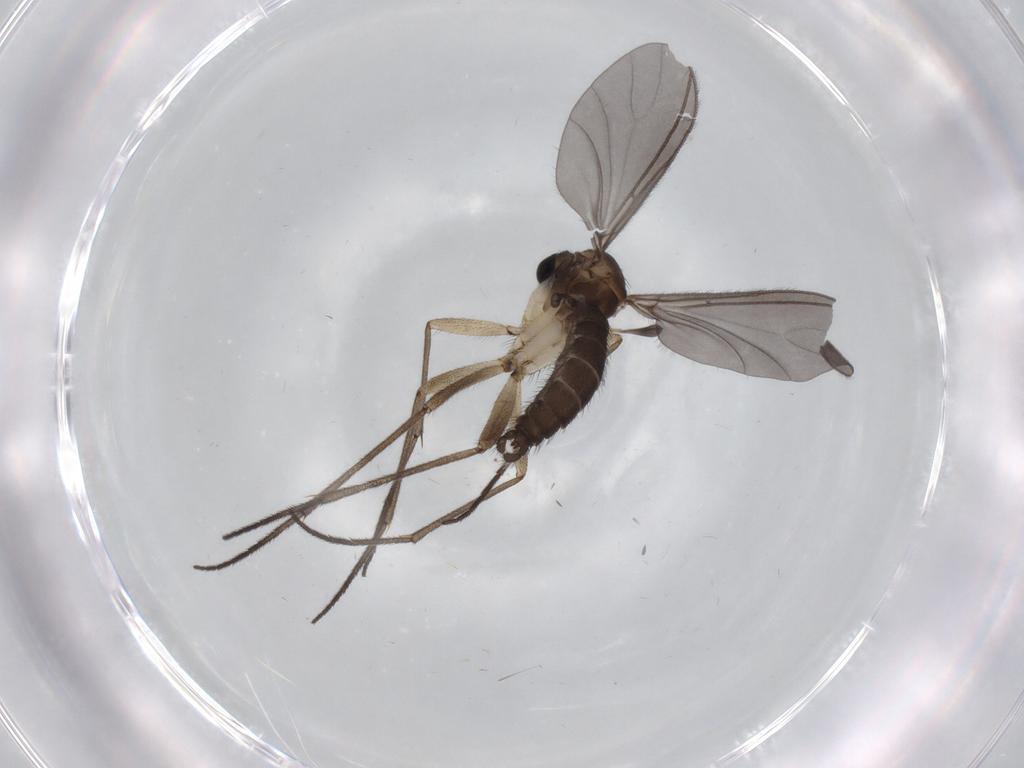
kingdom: Animalia
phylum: Arthropoda
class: Insecta
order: Diptera
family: Sciaridae
